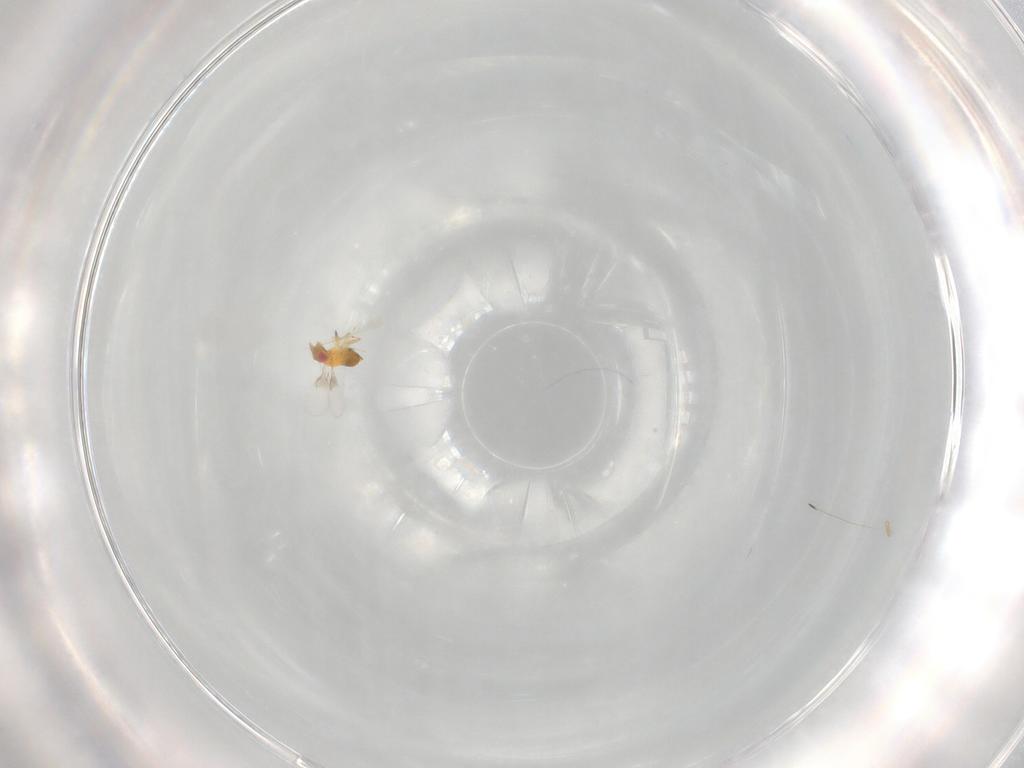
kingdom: Animalia
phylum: Arthropoda
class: Insecta
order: Hymenoptera
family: Trichogrammatidae
